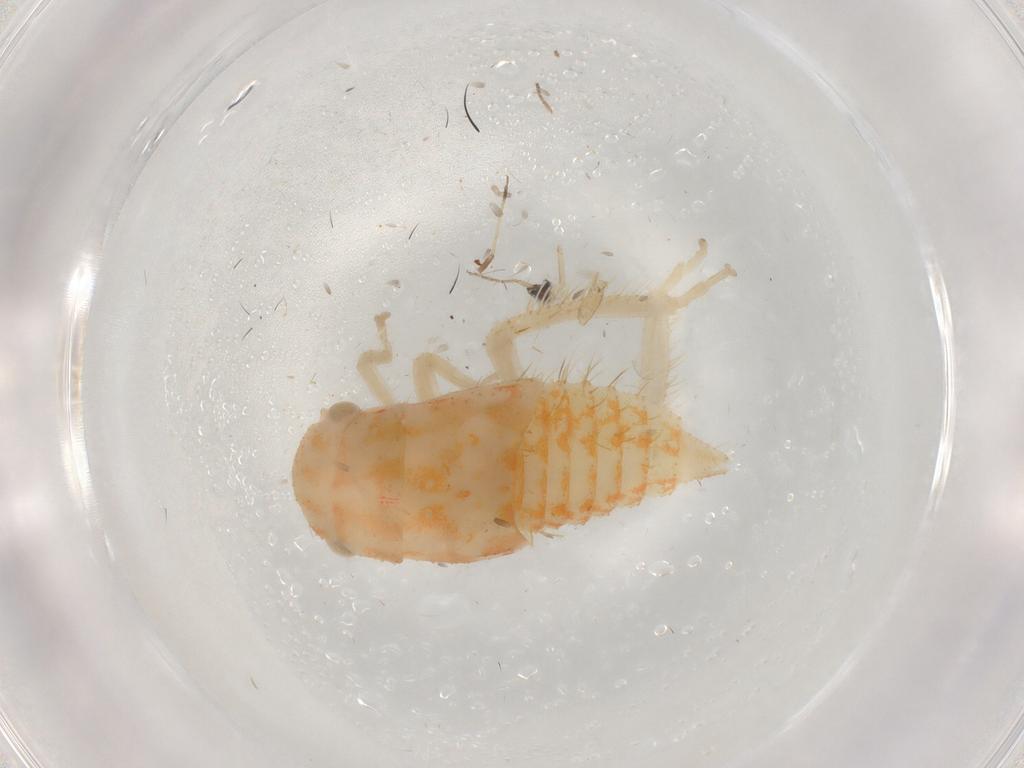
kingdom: Animalia
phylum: Arthropoda
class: Insecta
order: Hemiptera
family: Cicadellidae
